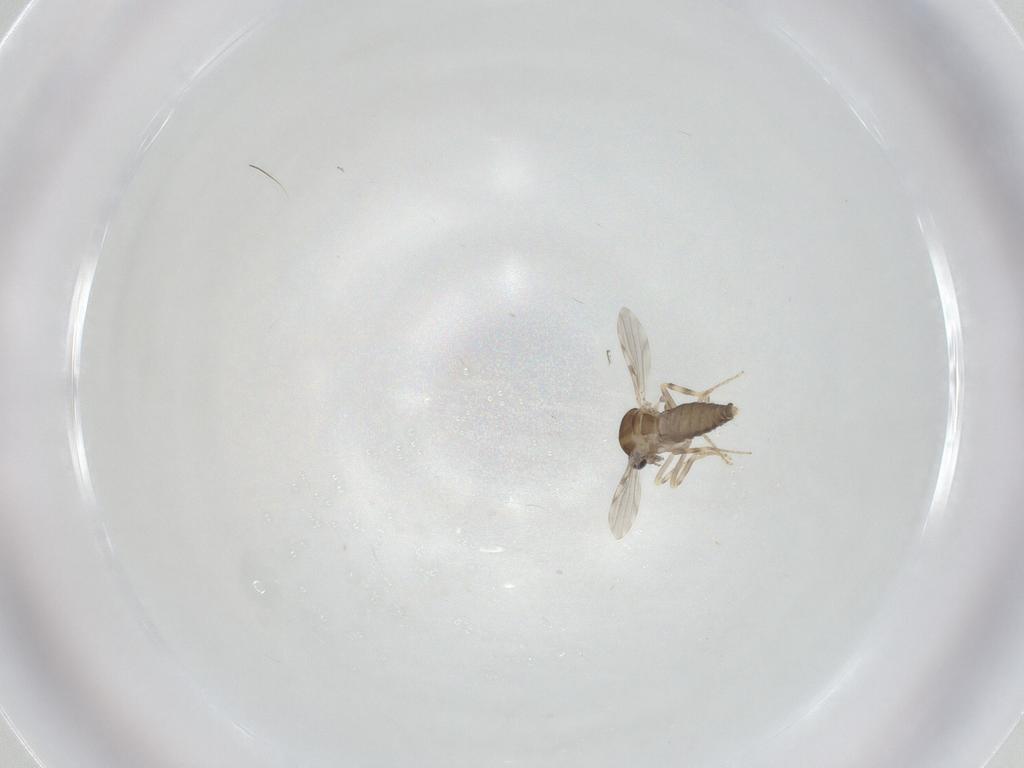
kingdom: Animalia
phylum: Arthropoda
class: Insecta
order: Diptera
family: Ceratopogonidae
